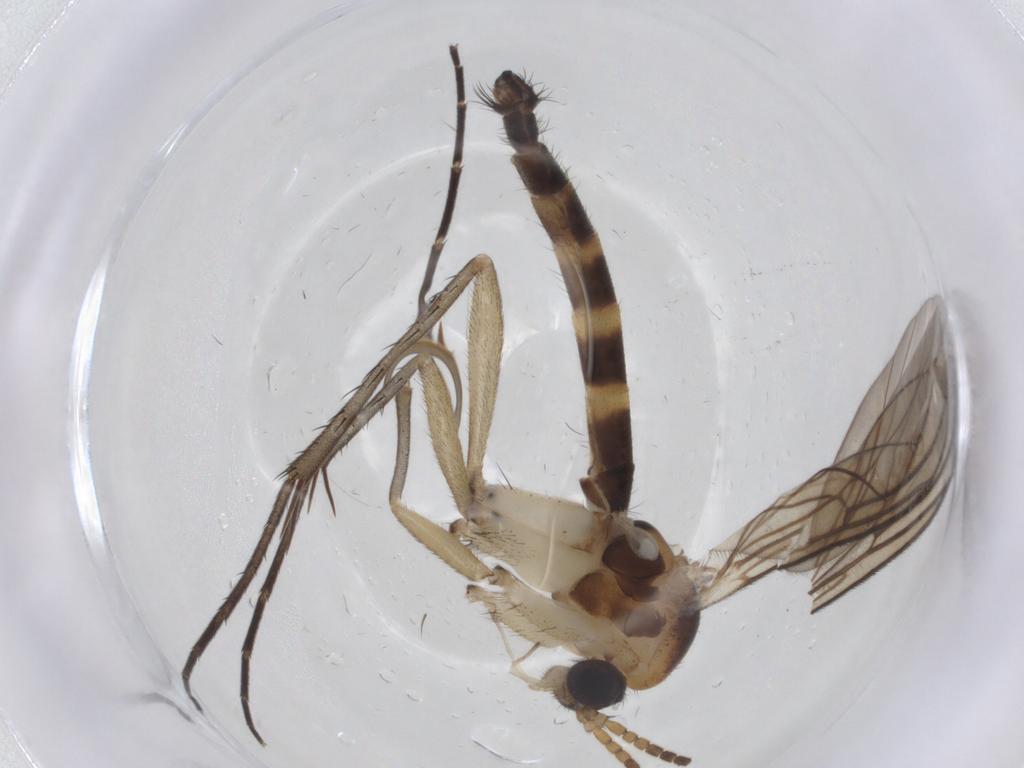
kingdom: Animalia
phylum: Arthropoda
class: Insecta
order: Diptera
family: Mycetophilidae
